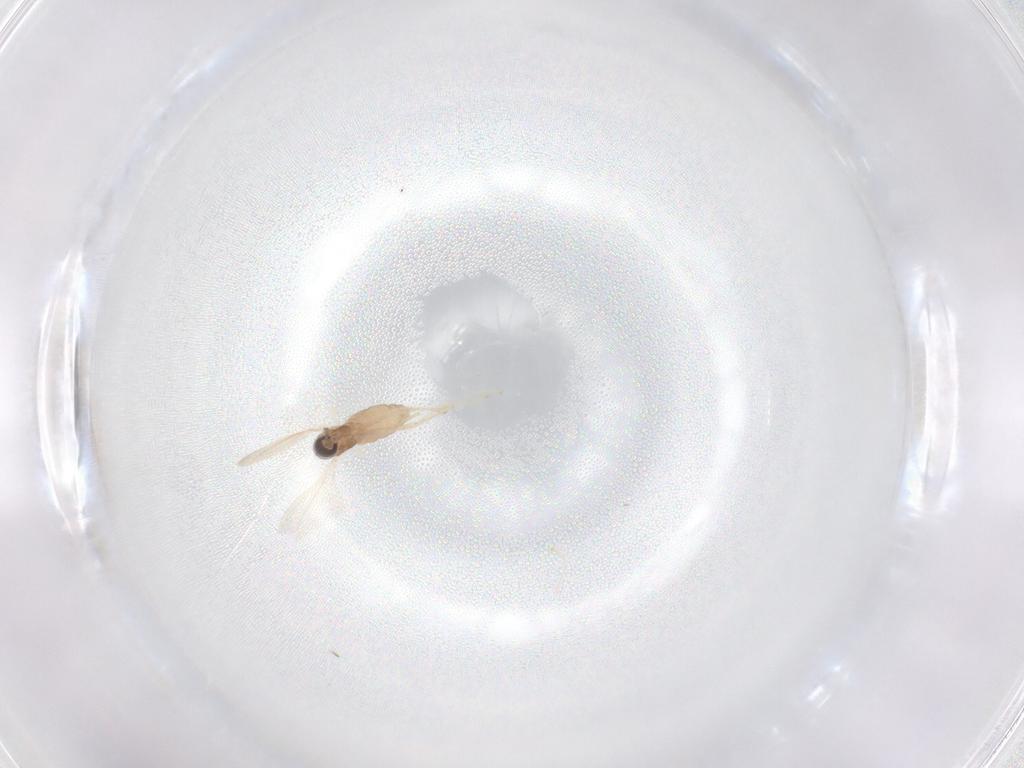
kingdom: Animalia
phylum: Arthropoda
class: Insecta
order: Diptera
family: Cecidomyiidae
